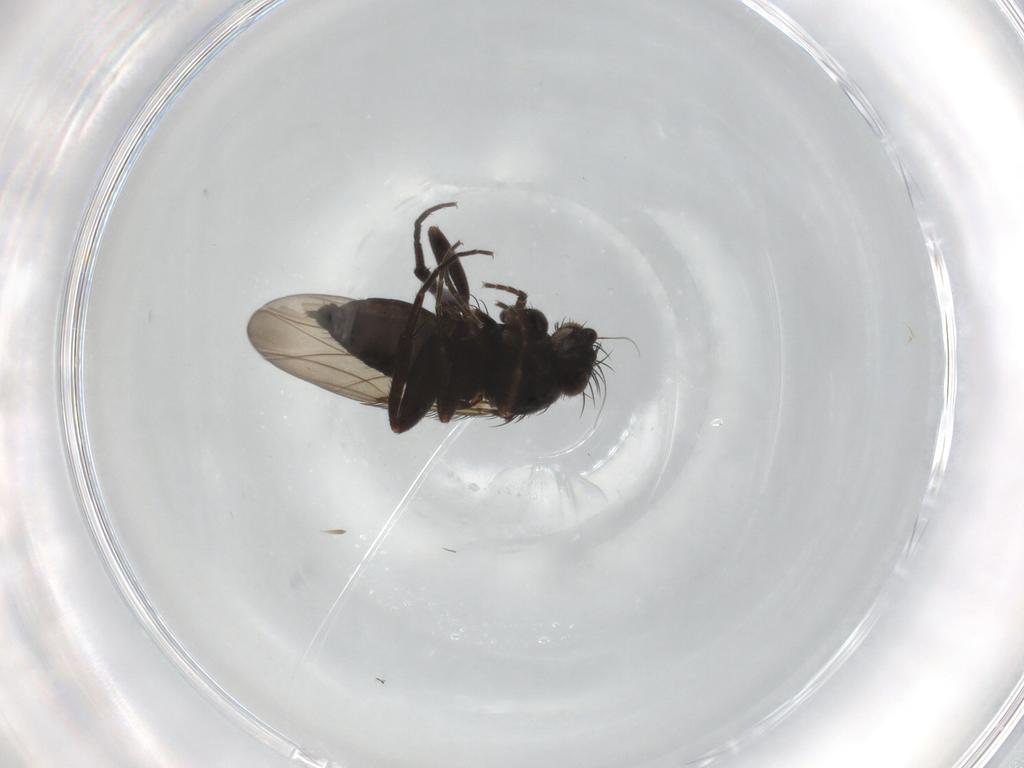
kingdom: Animalia
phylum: Arthropoda
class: Insecta
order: Diptera
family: Phoridae
